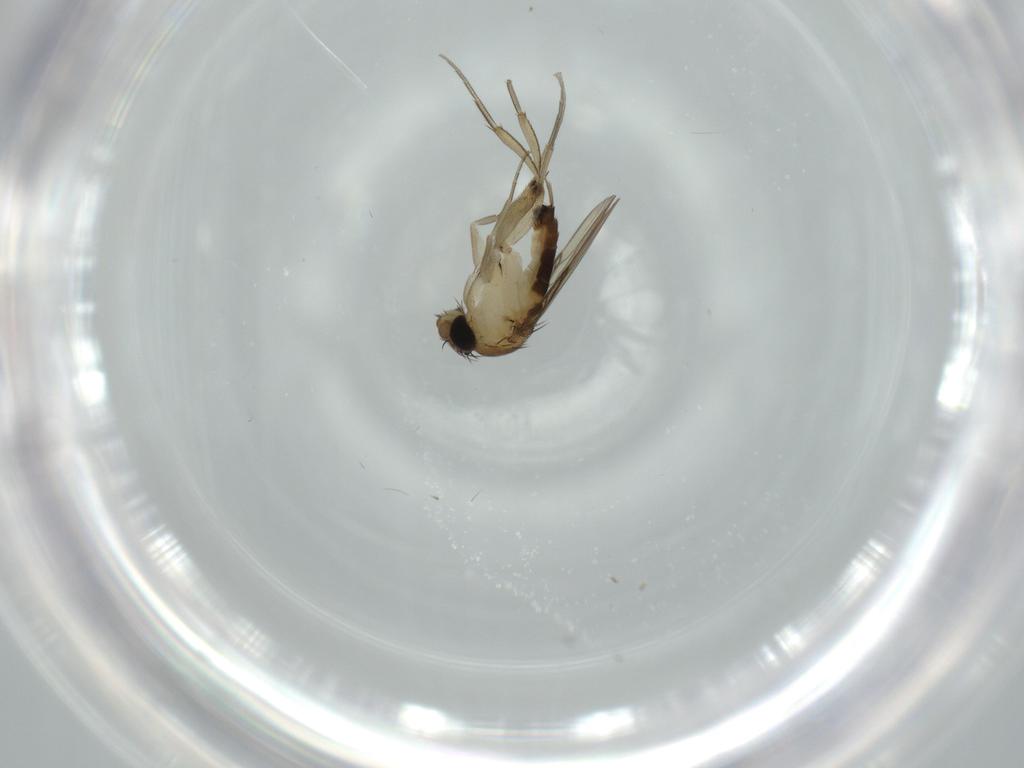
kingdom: Animalia
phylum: Arthropoda
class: Insecta
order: Diptera
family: Phoridae
